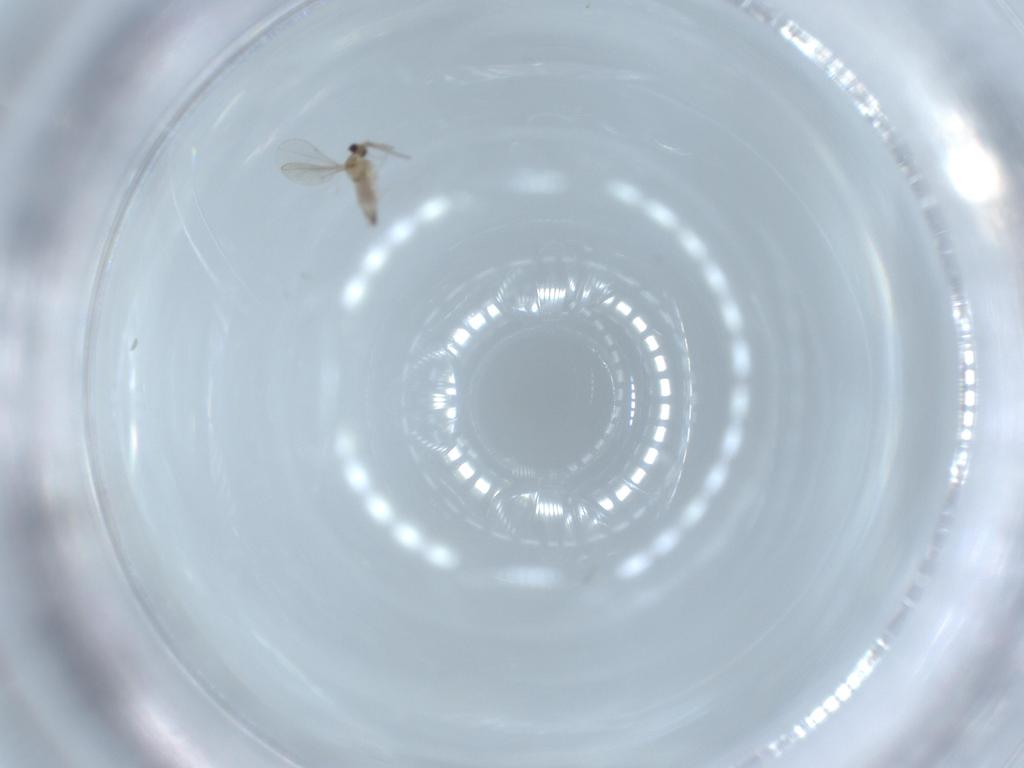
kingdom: Animalia
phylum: Arthropoda
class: Insecta
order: Diptera
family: Cecidomyiidae
